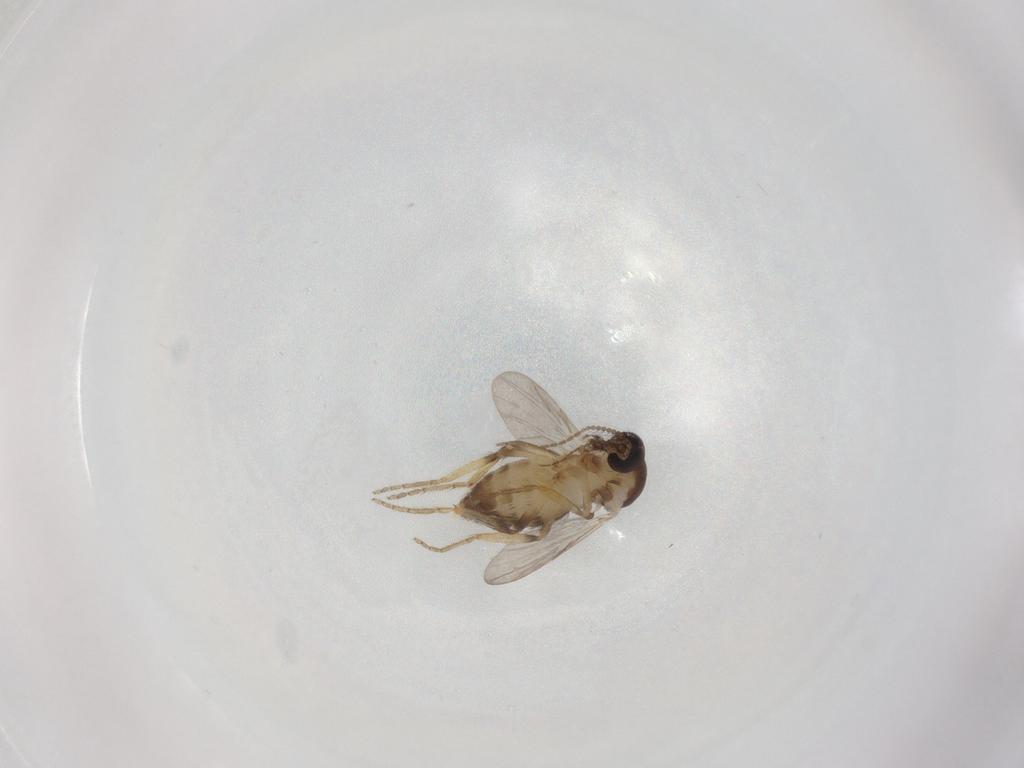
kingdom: Animalia
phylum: Arthropoda
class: Insecta
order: Diptera
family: Ceratopogonidae
